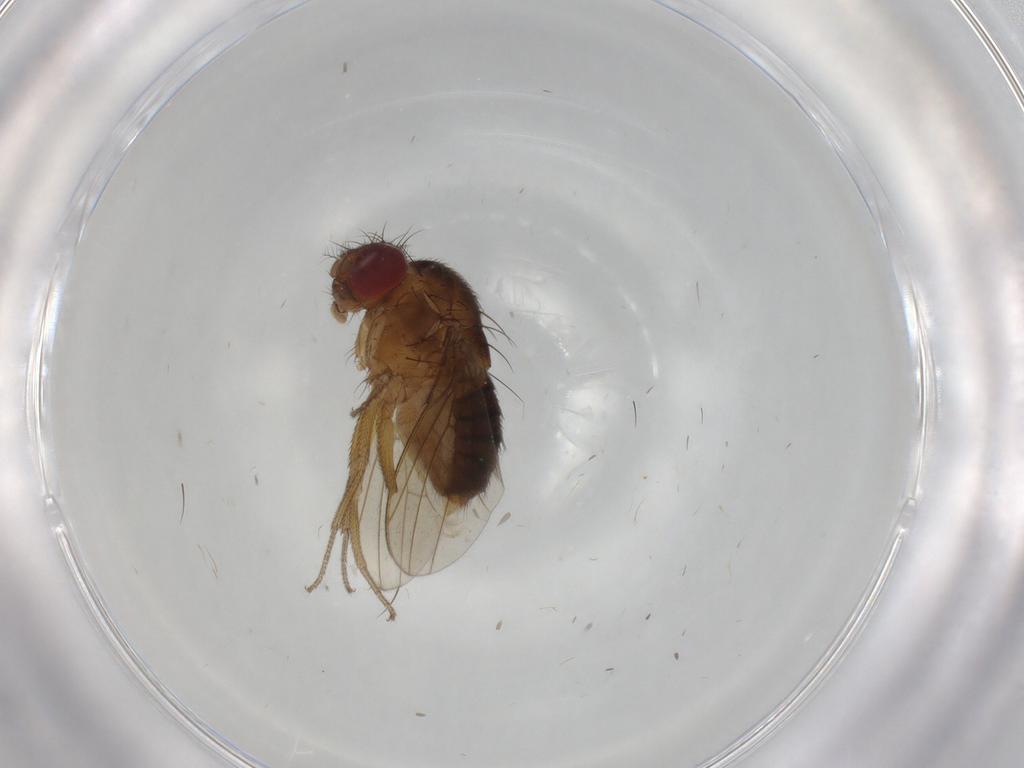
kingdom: Animalia
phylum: Arthropoda
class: Insecta
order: Diptera
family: Drosophilidae
